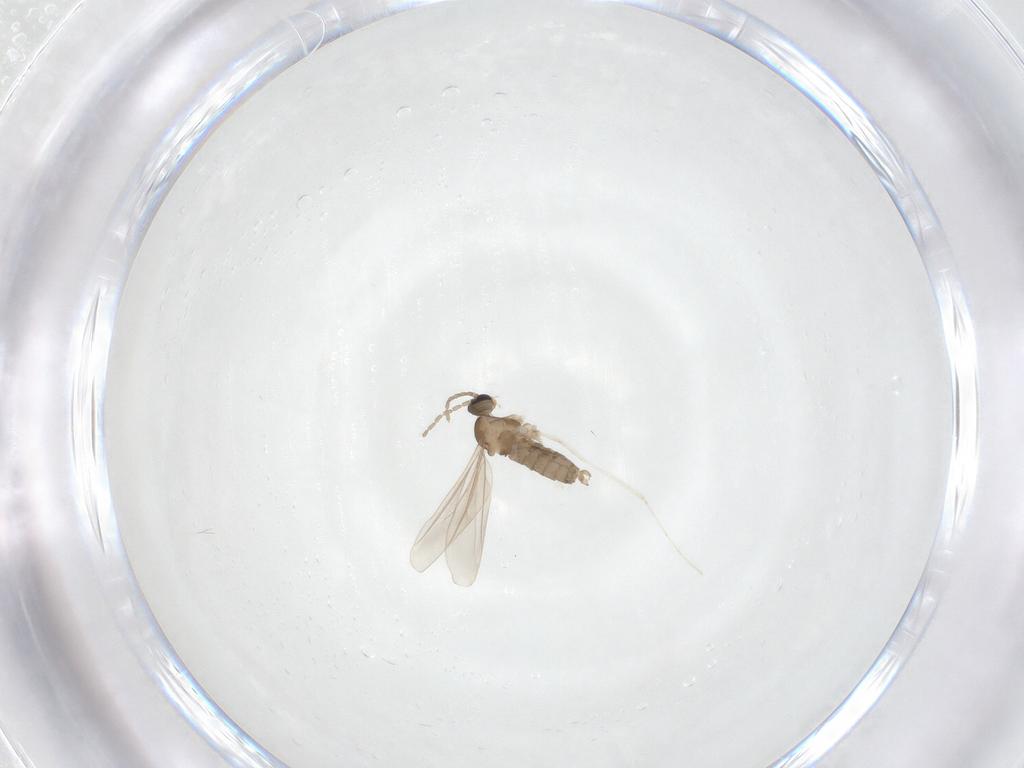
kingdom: Animalia
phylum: Arthropoda
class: Insecta
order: Diptera
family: Cecidomyiidae
